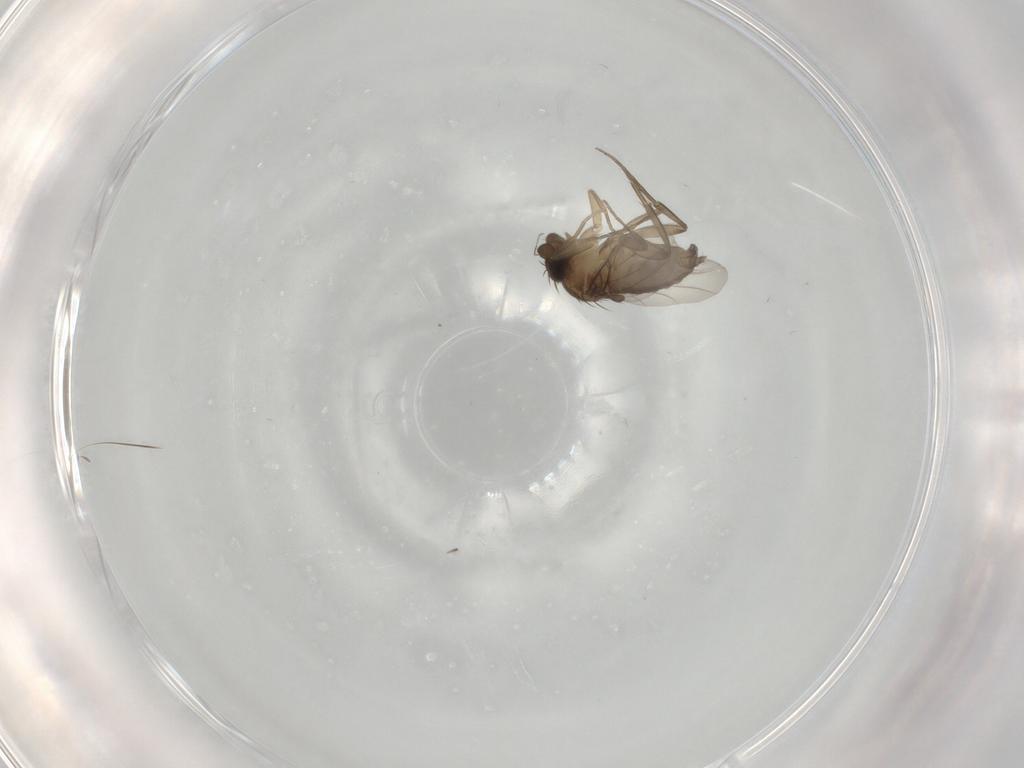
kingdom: Animalia
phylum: Arthropoda
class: Insecta
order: Diptera
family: Phoridae
